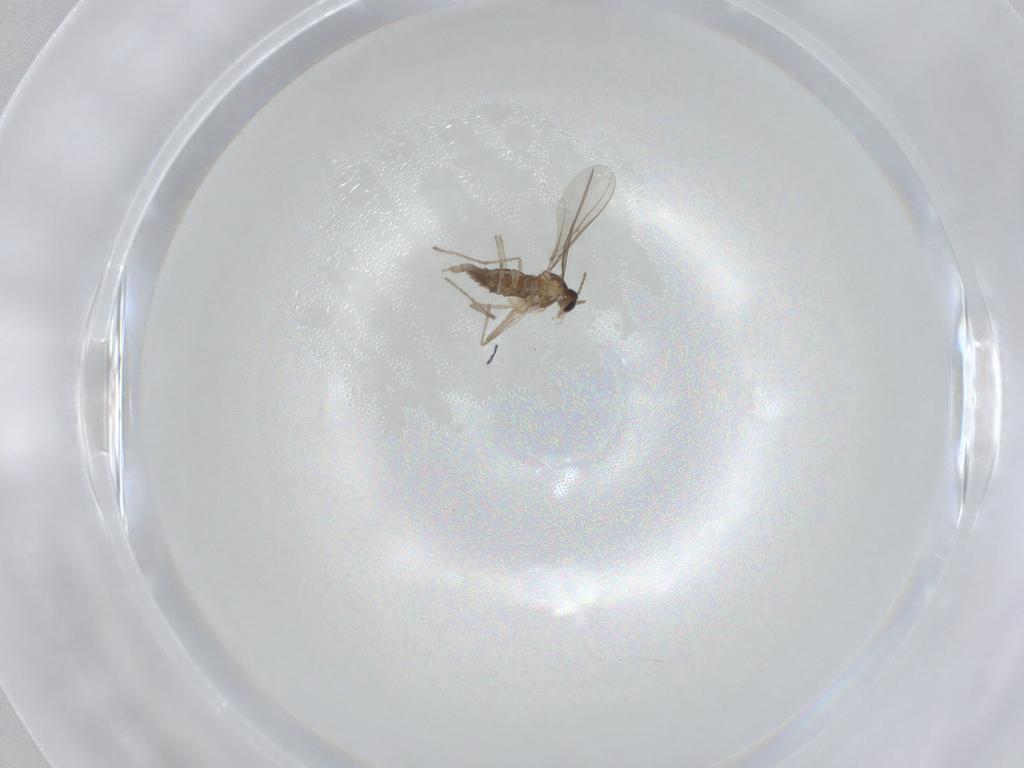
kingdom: Animalia
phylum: Arthropoda
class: Insecta
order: Diptera
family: Cecidomyiidae
